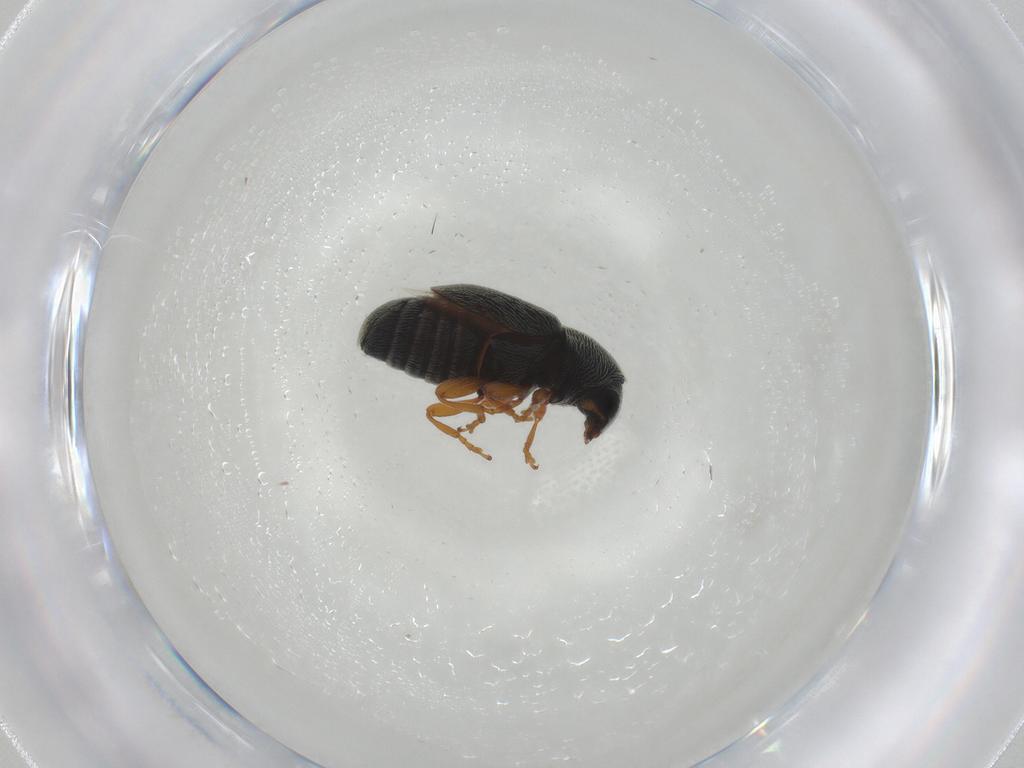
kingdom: Animalia
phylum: Arthropoda
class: Insecta
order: Coleoptera
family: Anthribidae
